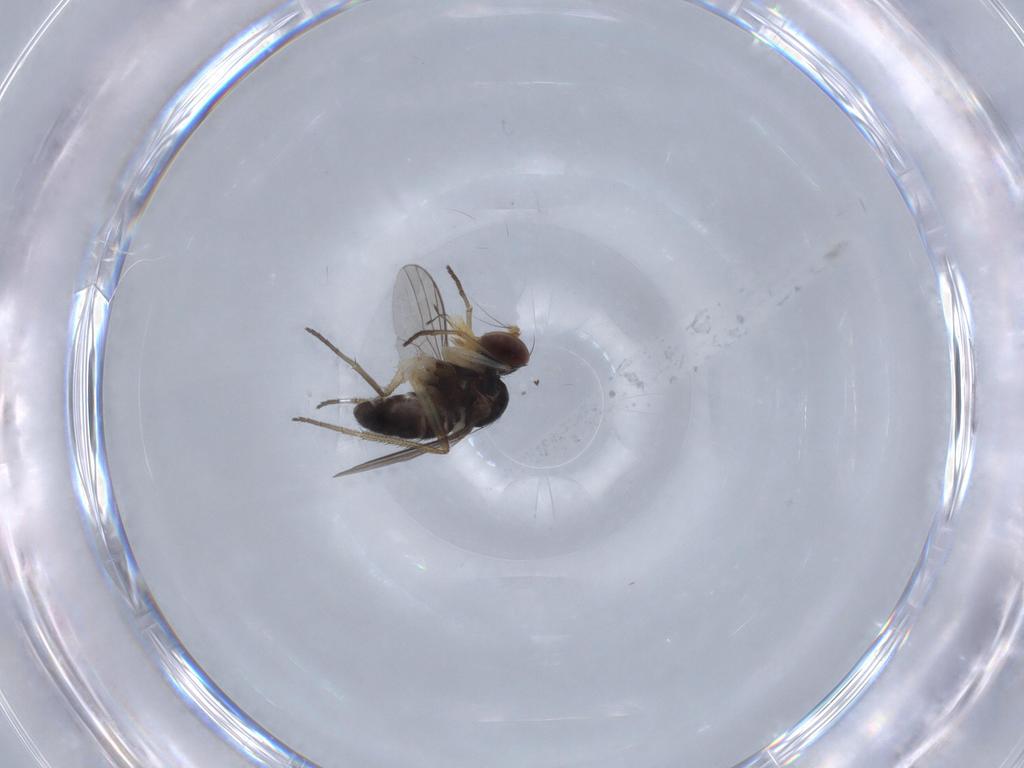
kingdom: Animalia
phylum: Arthropoda
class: Insecta
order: Diptera
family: Dolichopodidae
